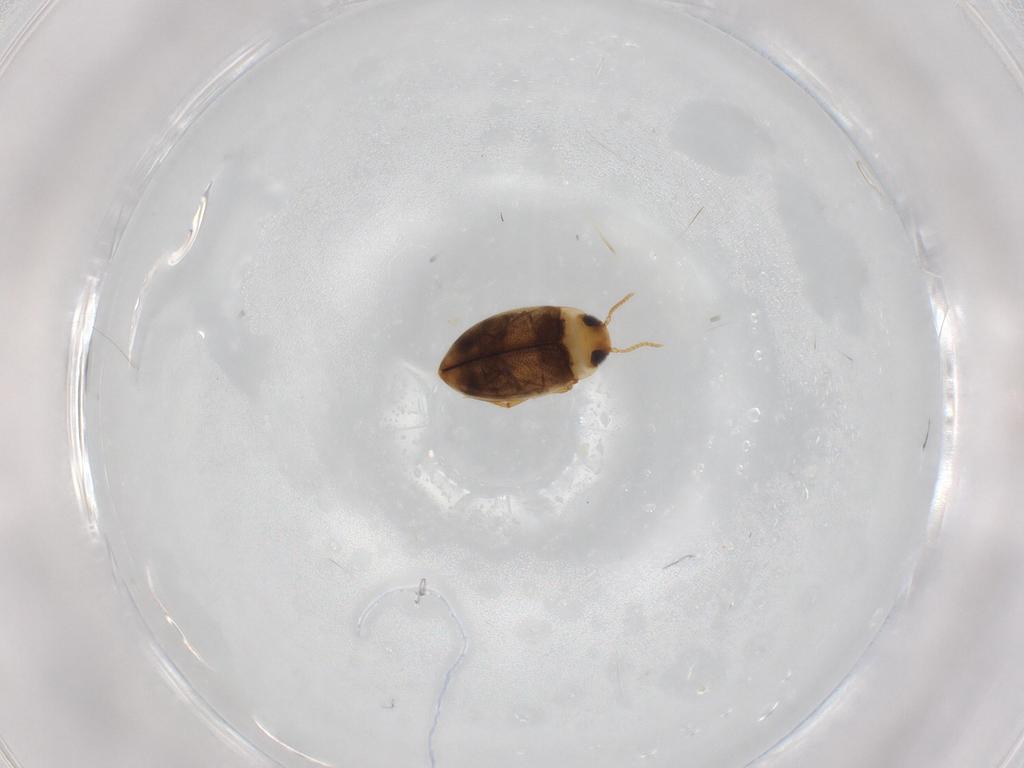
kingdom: Animalia
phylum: Arthropoda
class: Insecta
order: Coleoptera
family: Dytiscidae
